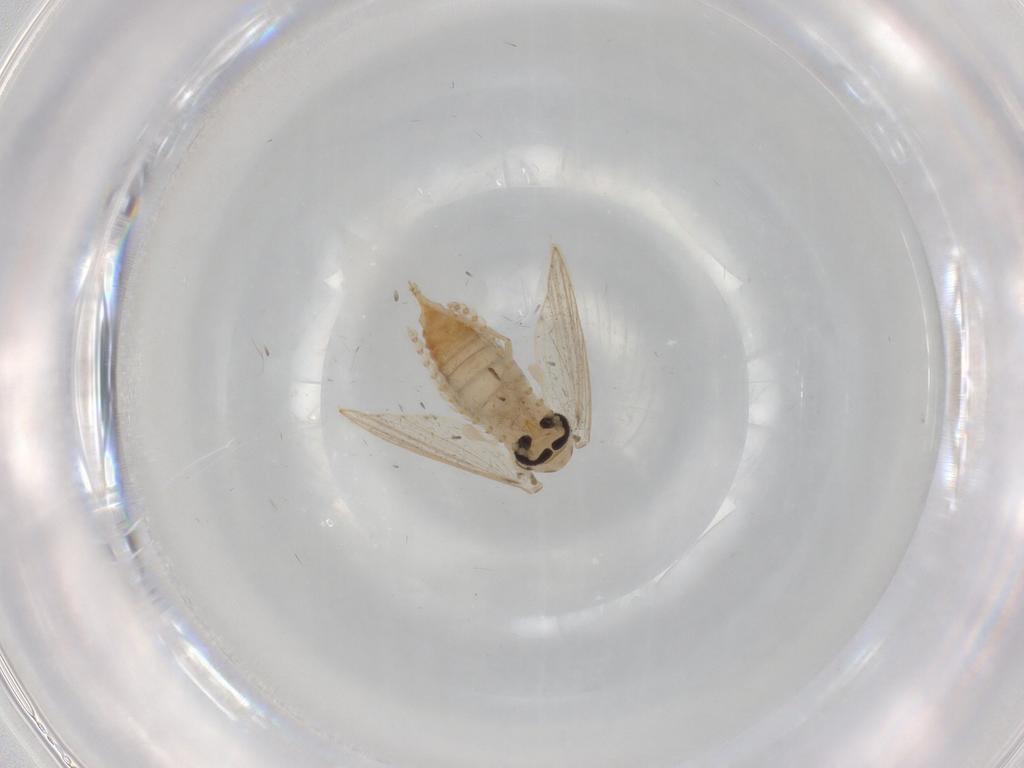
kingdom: Animalia
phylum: Arthropoda
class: Insecta
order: Diptera
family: Psychodidae
